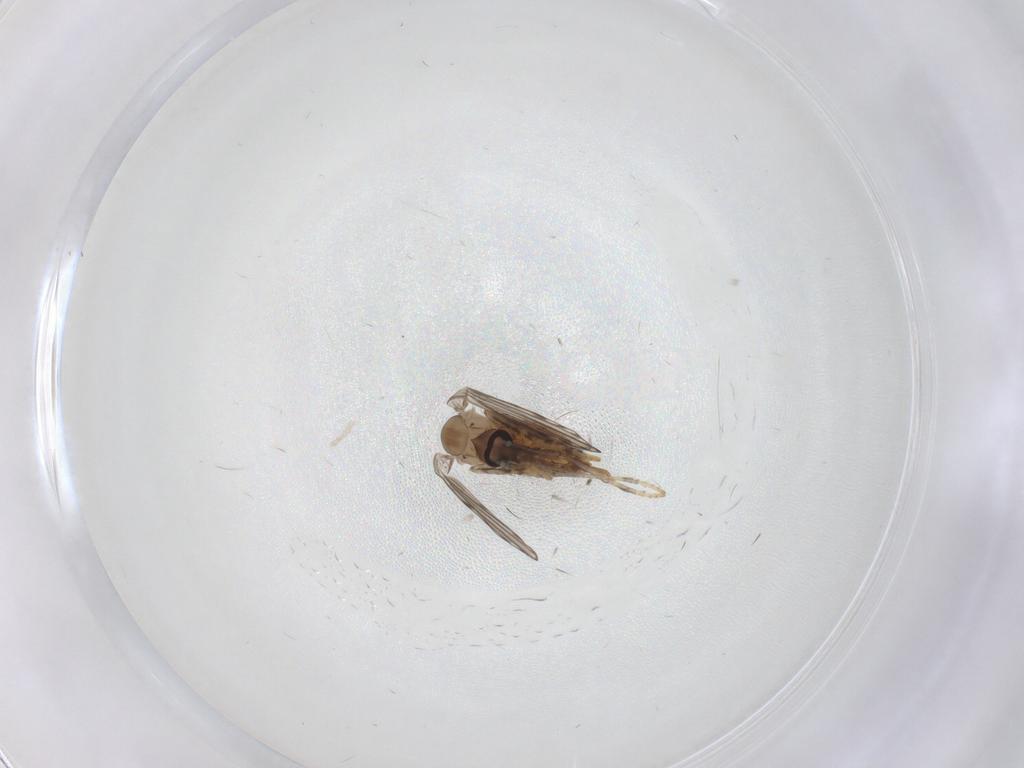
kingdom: Animalia
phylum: Arthropoda
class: Insecta
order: Diptera
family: Psychodidae
